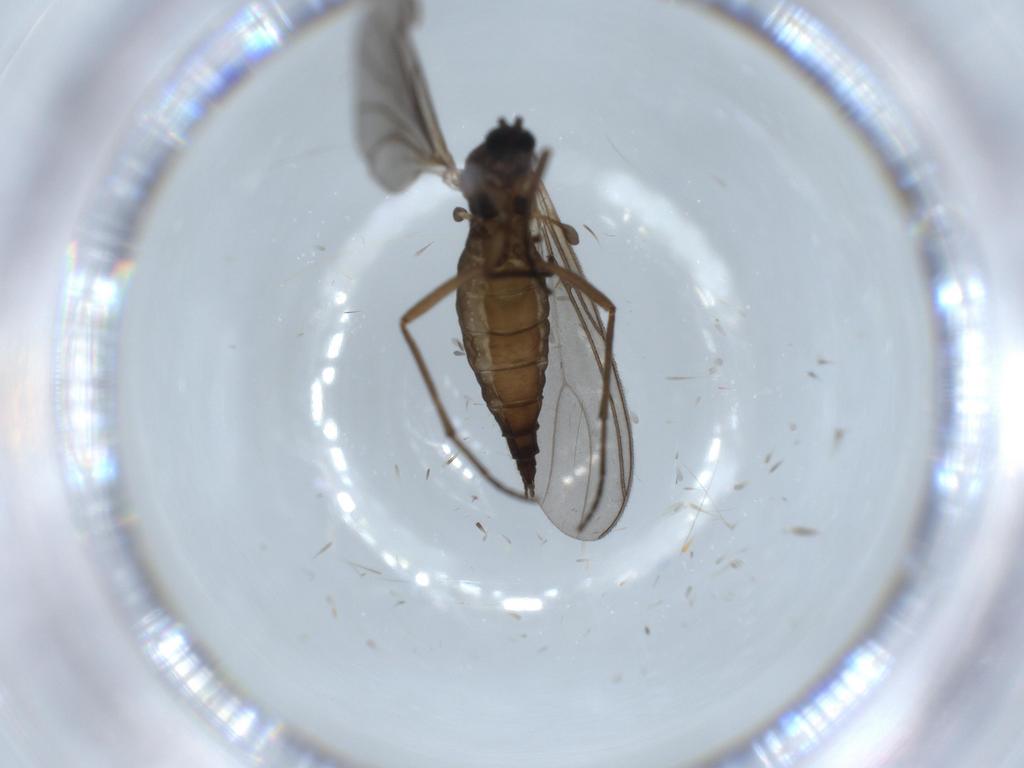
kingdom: Animalia
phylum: Arthropoda
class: Insecta
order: Diptera
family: Sciaridae
